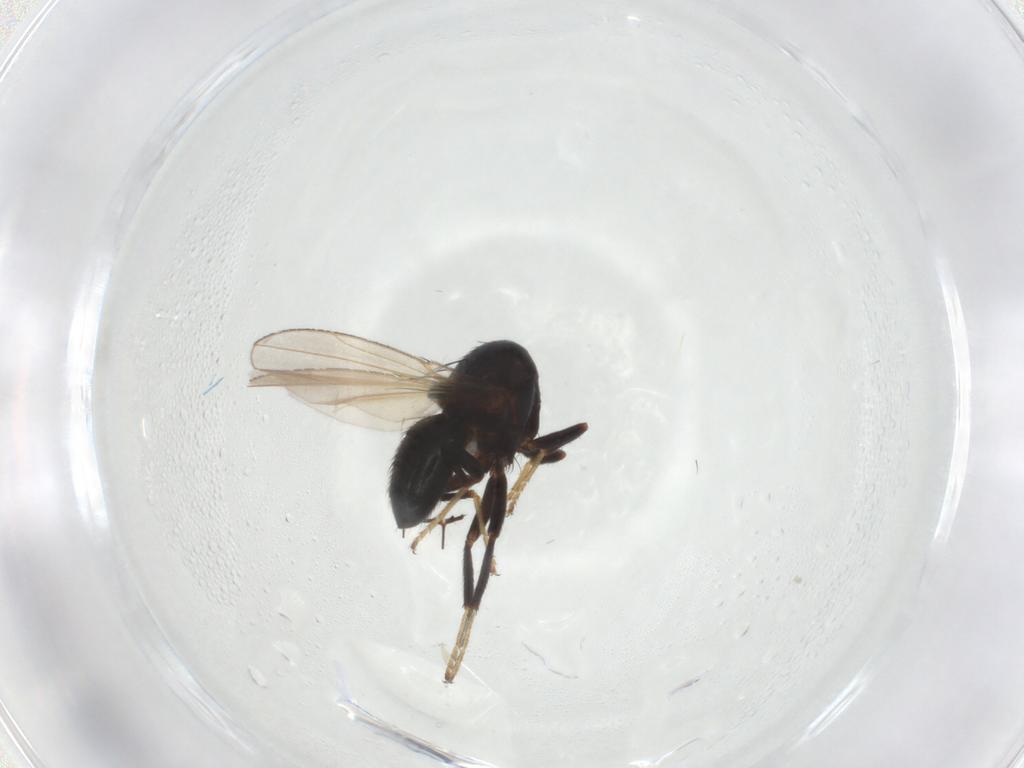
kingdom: Animalia
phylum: Arthropoda
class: Insecta
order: Diptera
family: Ephydridae
